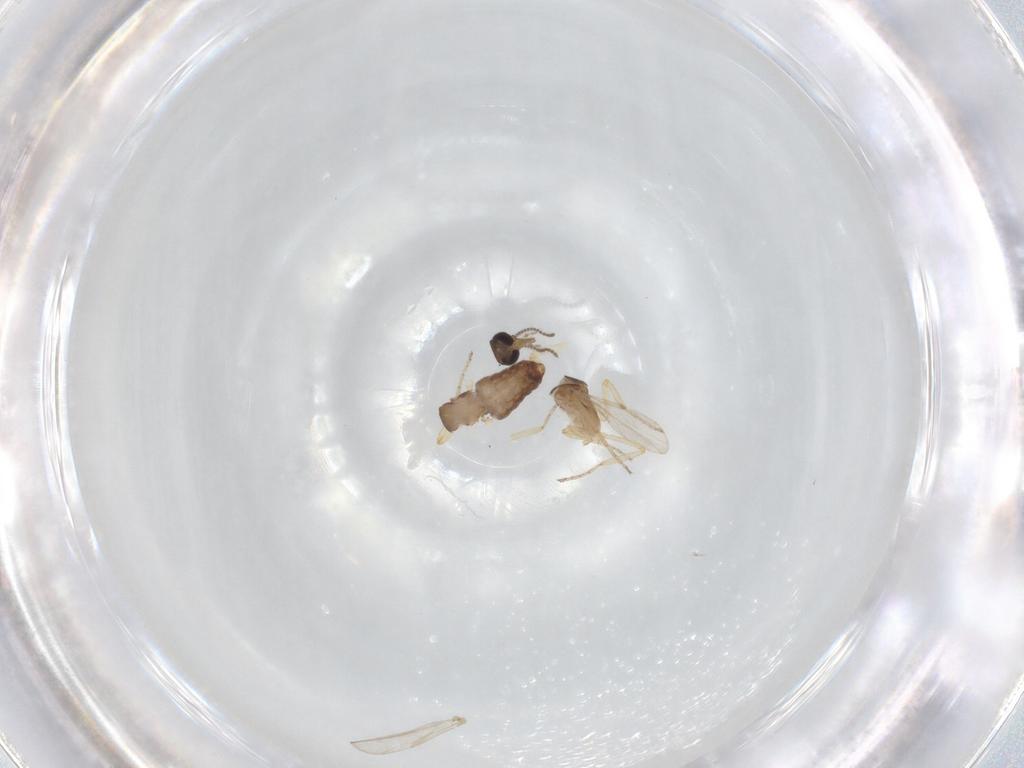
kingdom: Animalia
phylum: Arthropoda
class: Insecta
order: Diptera
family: Ceratopogonidae
